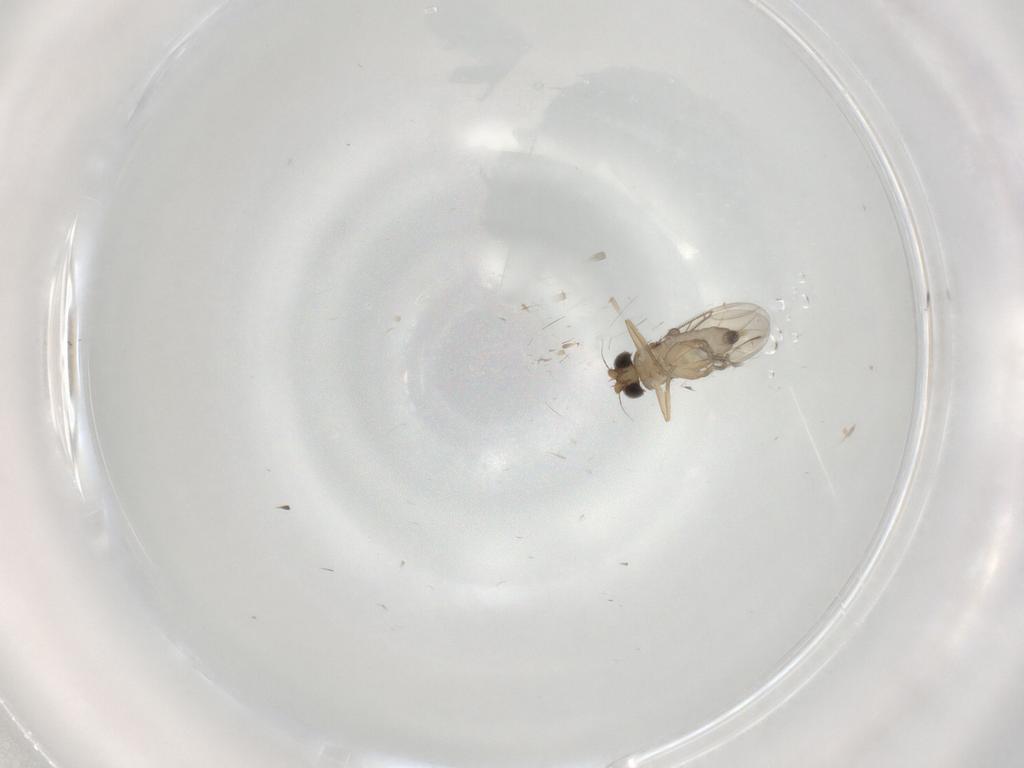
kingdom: Animalia
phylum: Arthropoda
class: Insecta
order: Diptera
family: Phoridae
